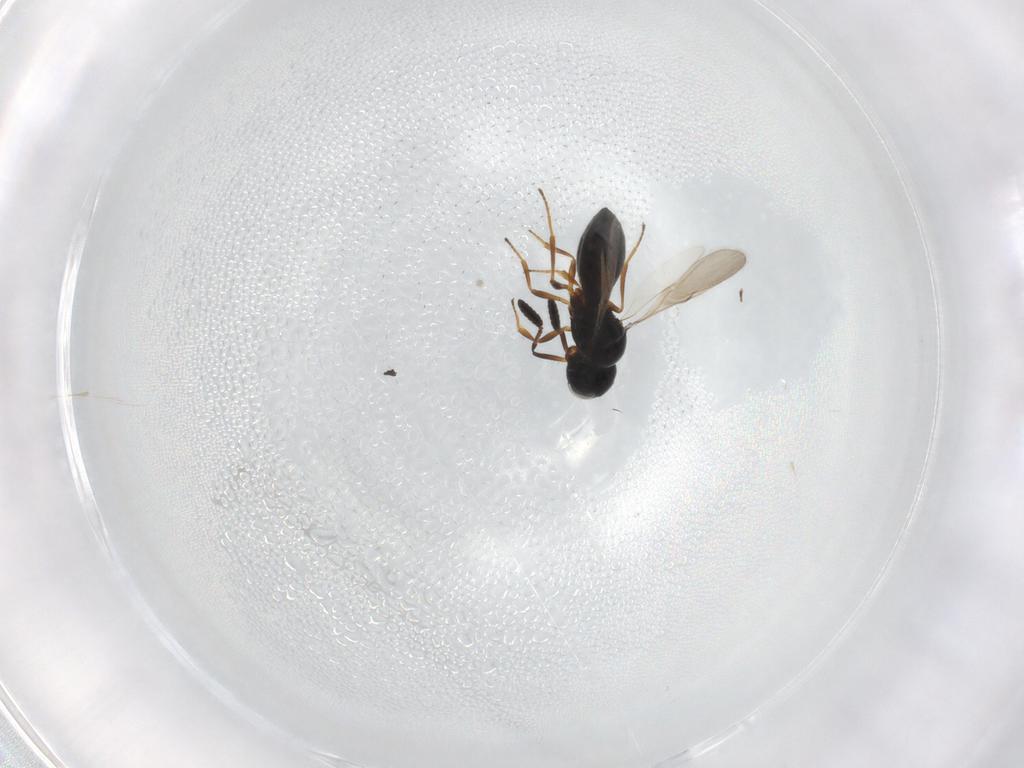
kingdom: Animalia
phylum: Arthropoda
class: Insecta
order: Hymenoptera
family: Scelionidae
